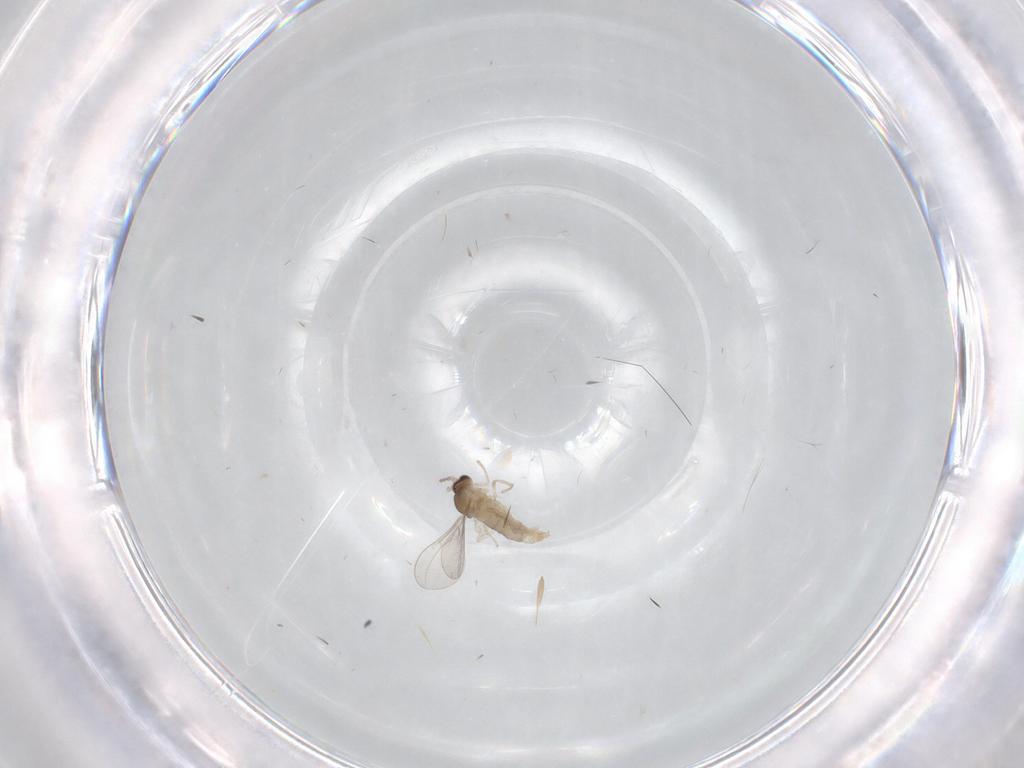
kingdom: Animalia
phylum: Arthropoda
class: Insecta
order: Diptera
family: Cecidomyiidae
